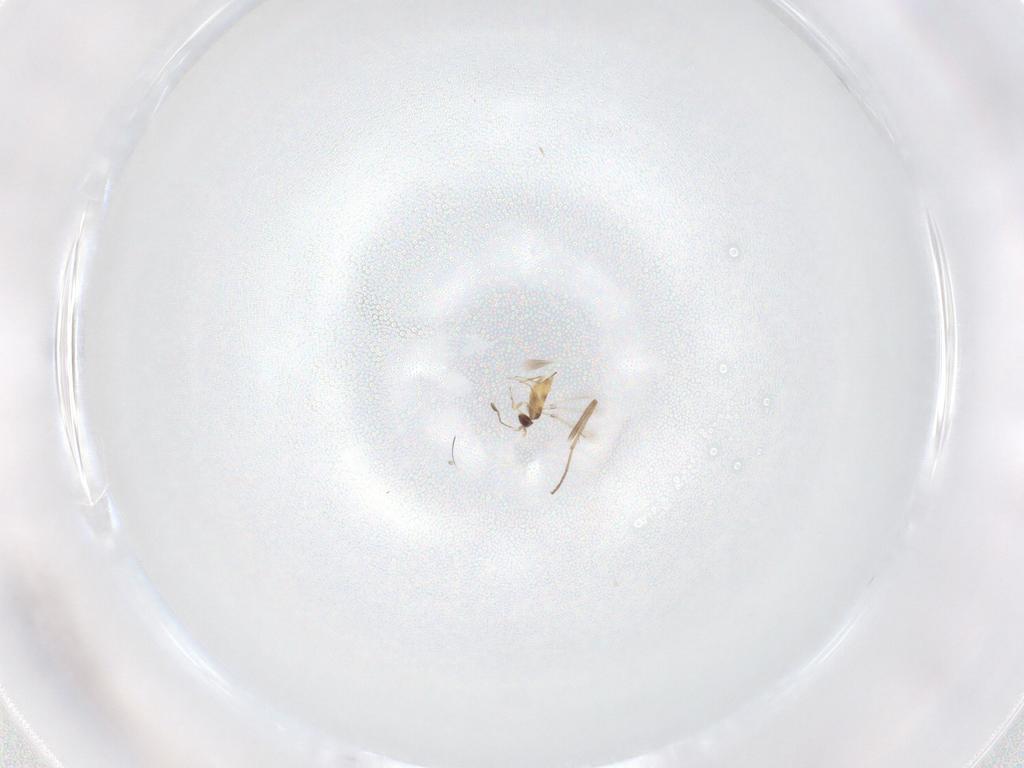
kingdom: Animalia
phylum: Arthropoda
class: Insecta
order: Hymenoptera
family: Mymaridae
